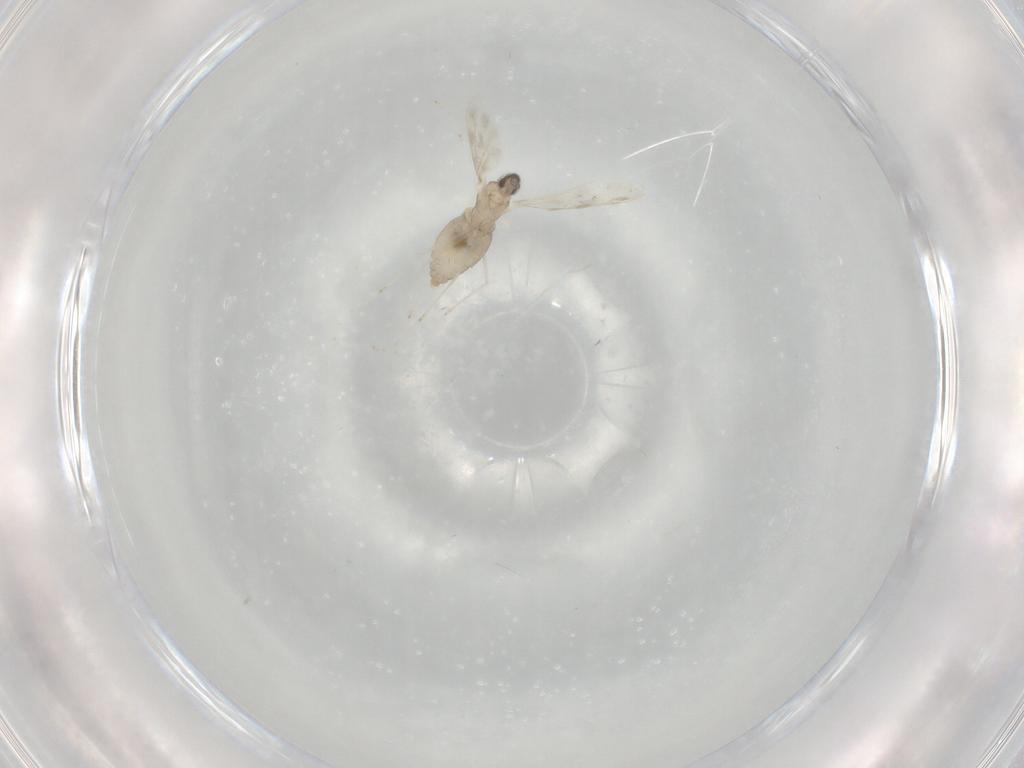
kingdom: Animalia
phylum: Arthropoda
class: Insecta
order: Diptera
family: Cecidomyiidae
